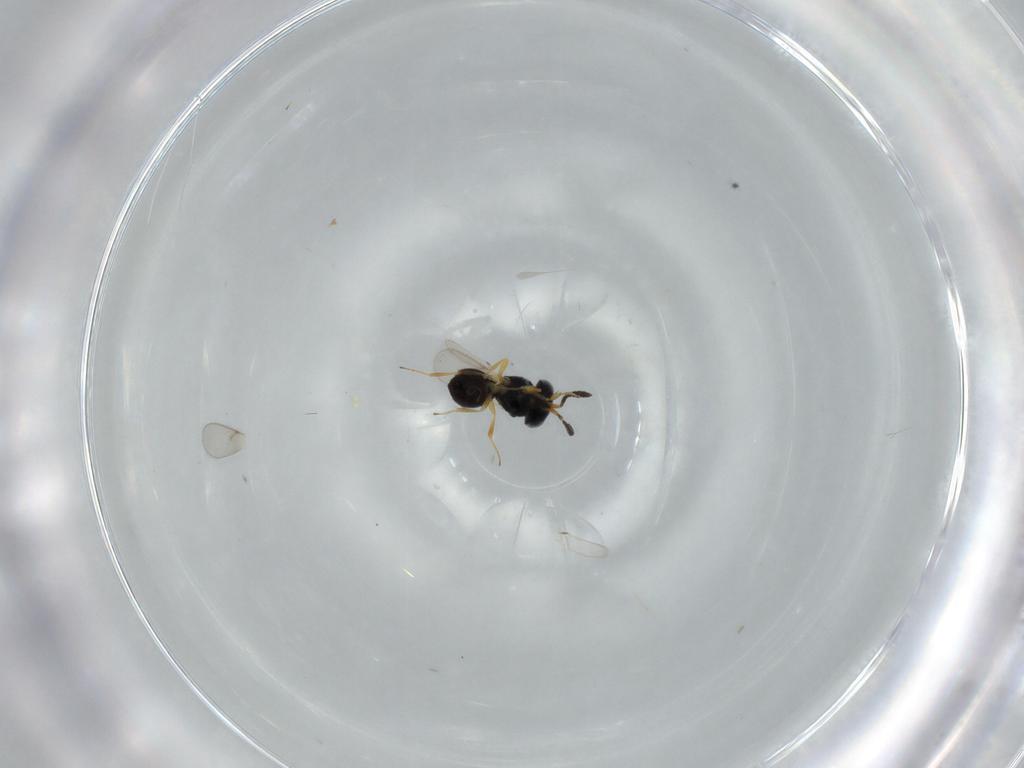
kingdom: Animalia
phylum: Arthropoda
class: Insecta
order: Hymenoptera
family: Scelionidae
